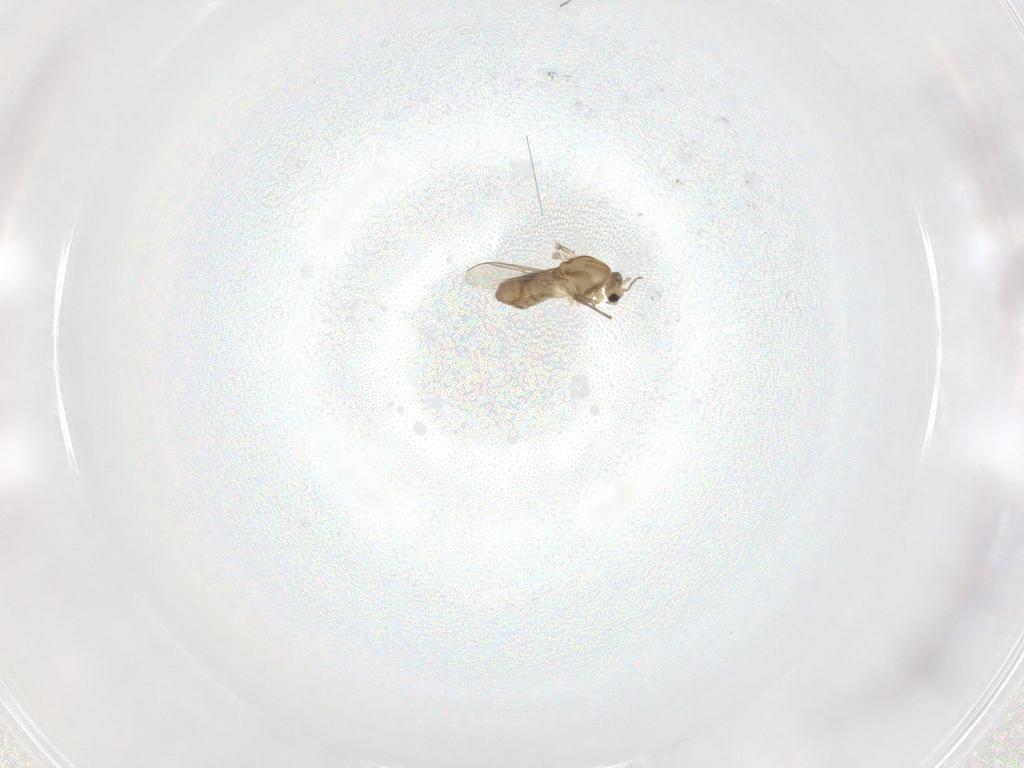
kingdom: Animalia
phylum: Arthropoda
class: Insecta
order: Diptera
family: Chironomidae
